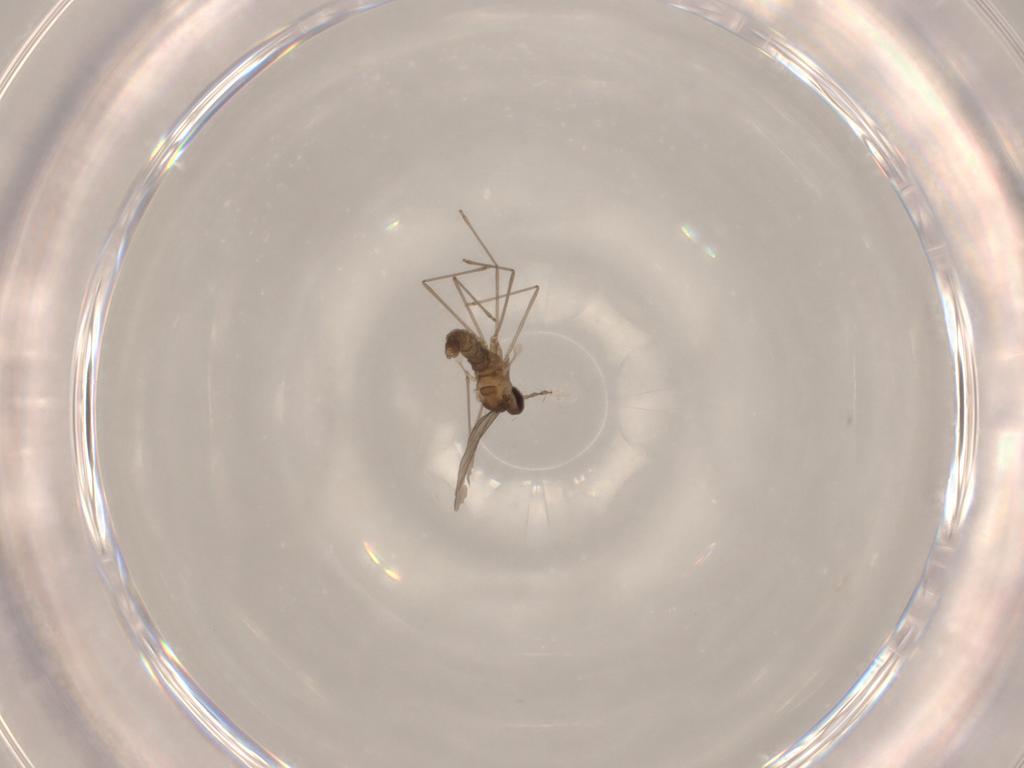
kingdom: Animalia
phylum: Arthropoda
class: Insecta
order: Diptera
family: Cecidomyiidae
